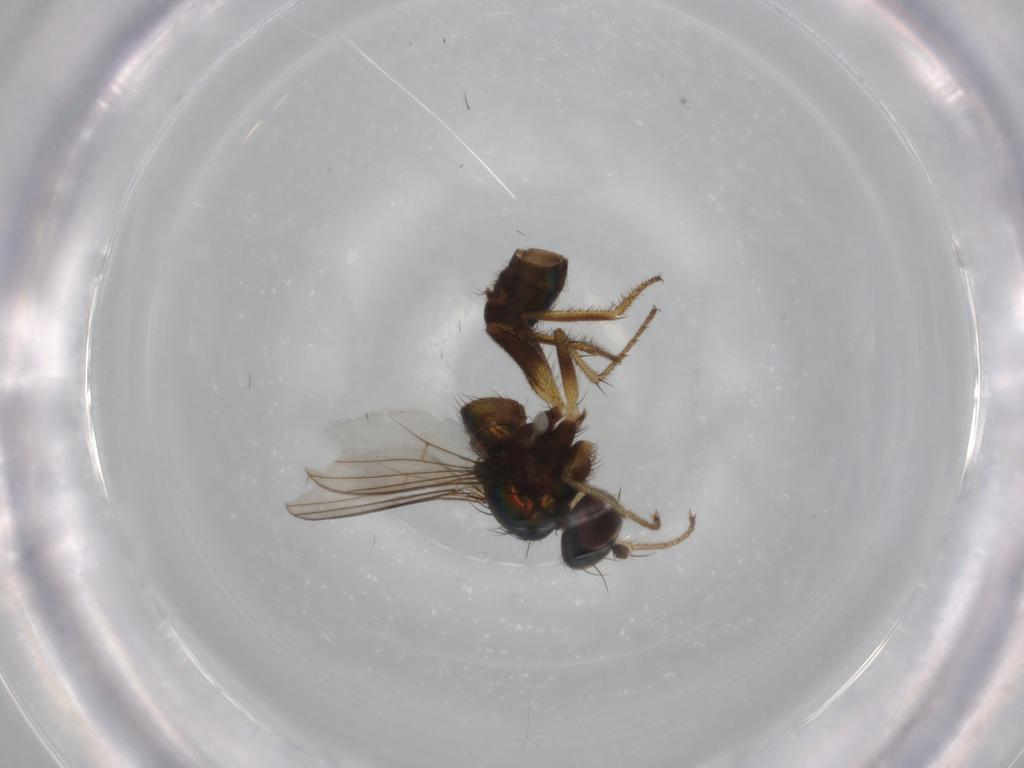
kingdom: Animalia
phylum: Arthropoda
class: Insecta
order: Diptera
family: Dolichopodidae
